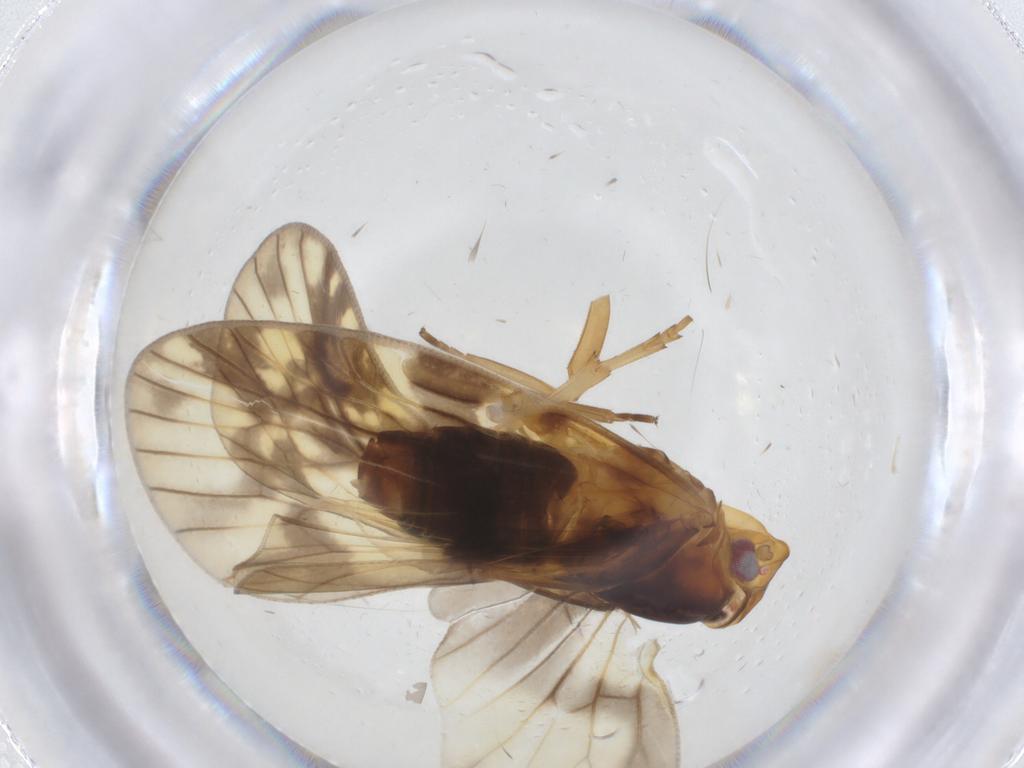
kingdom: Animalia
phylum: Arthropoda
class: Insecta
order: Hemiptera
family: Cixiidae
